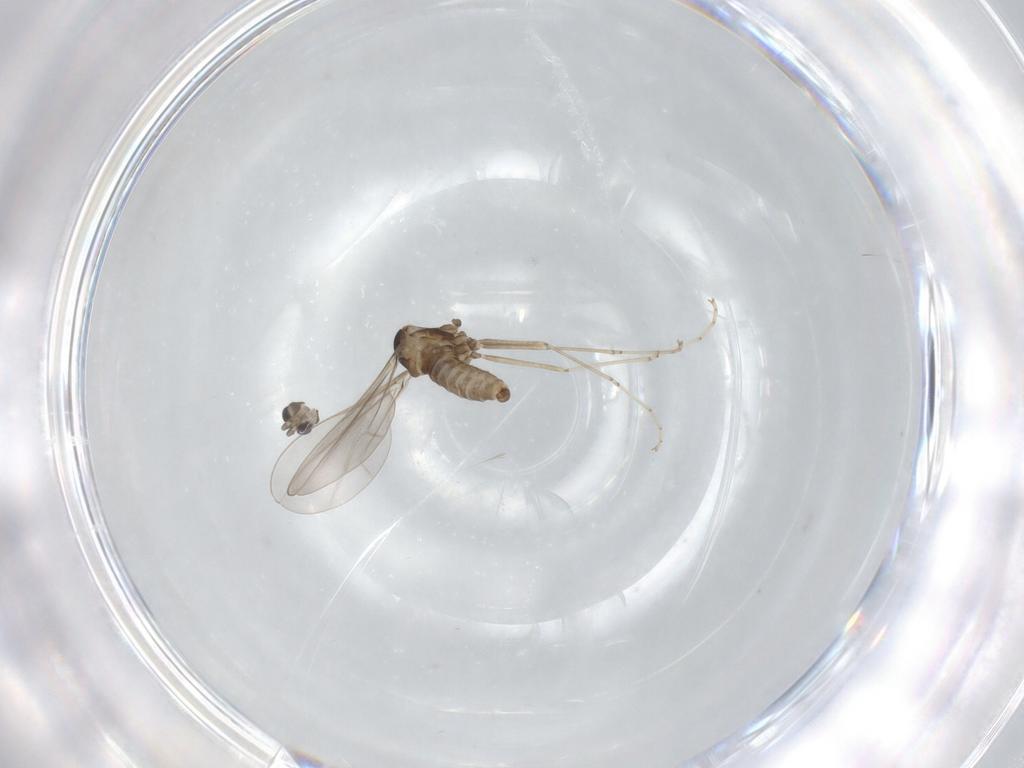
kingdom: Animalia
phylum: Arthropoda
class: Insecta
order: Diptera
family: Cecidomyiidae
